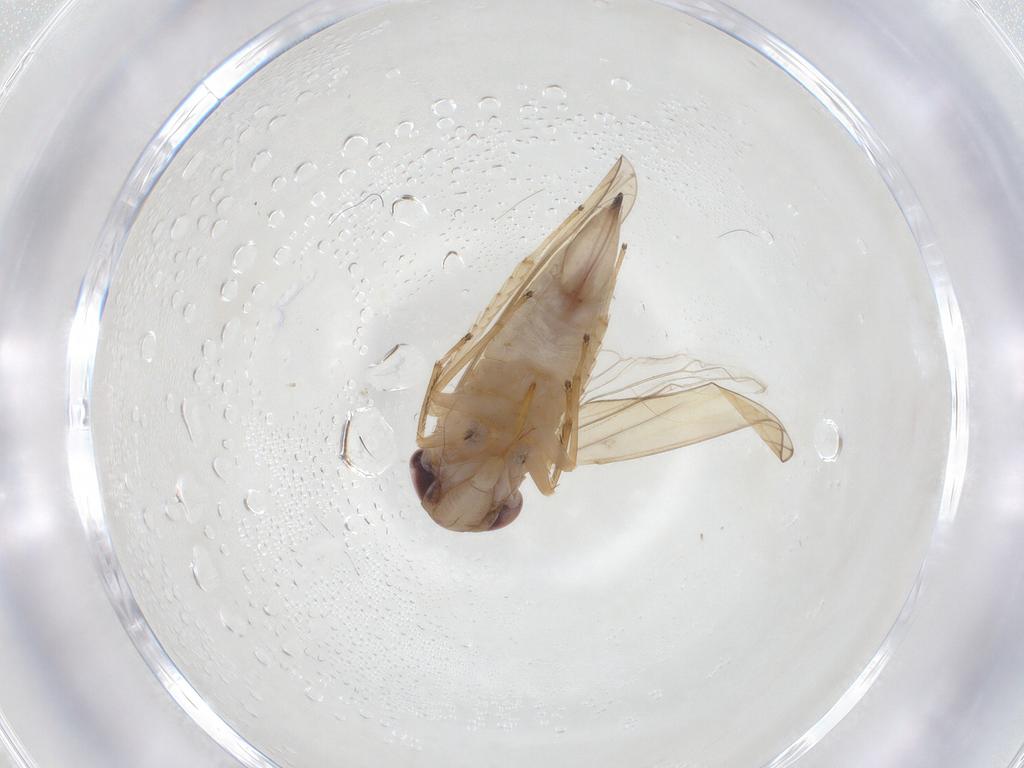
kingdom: Animalia
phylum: Arthropoda
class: Insecta
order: Hemiptera
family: Cicadellidae
